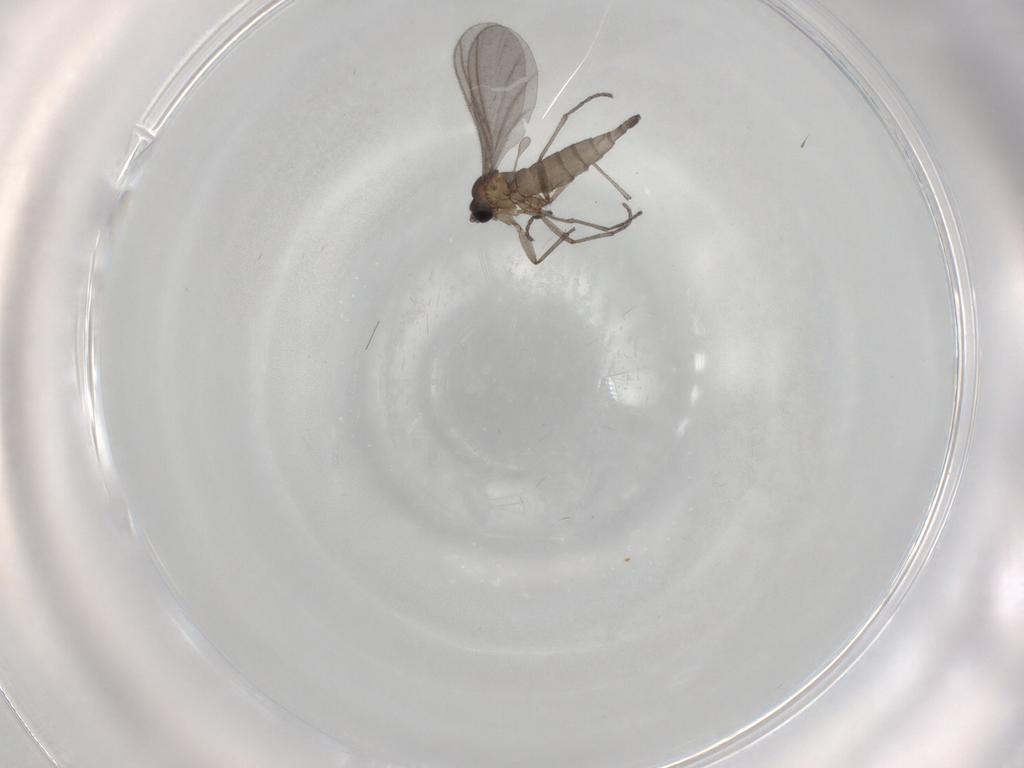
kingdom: Animalia
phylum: Arthropoda
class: Insecta
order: Diptera
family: Sciaridae
